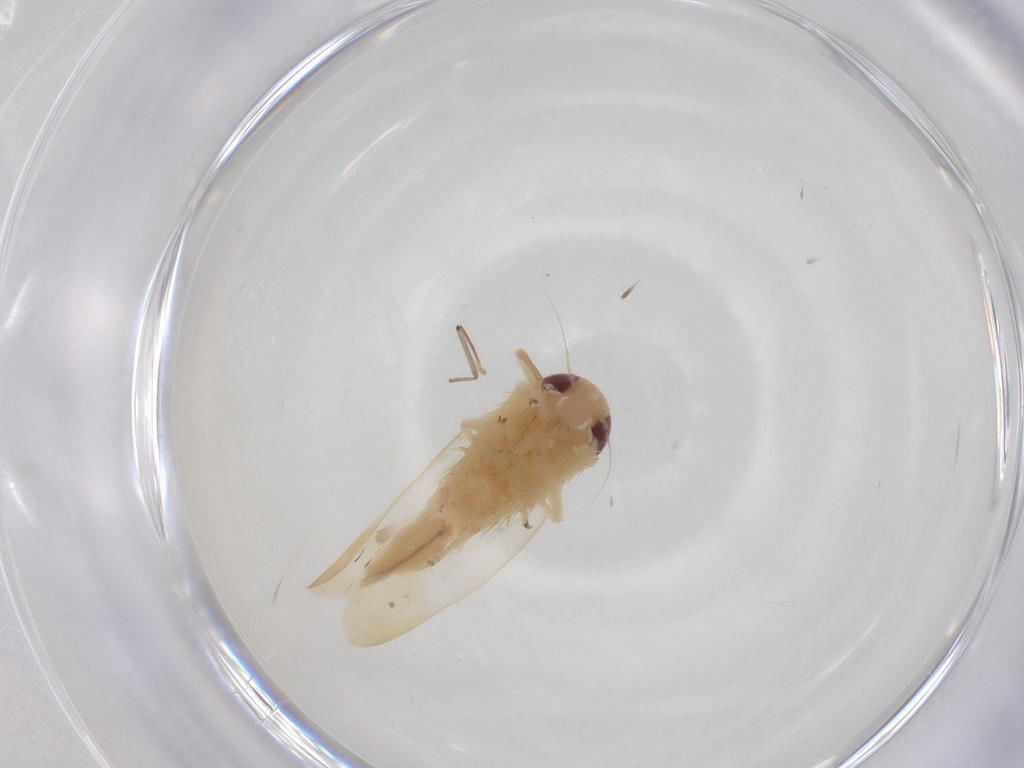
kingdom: Animalia
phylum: Arthropoda
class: Insecta
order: Hemiptera
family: Cicadellidae
